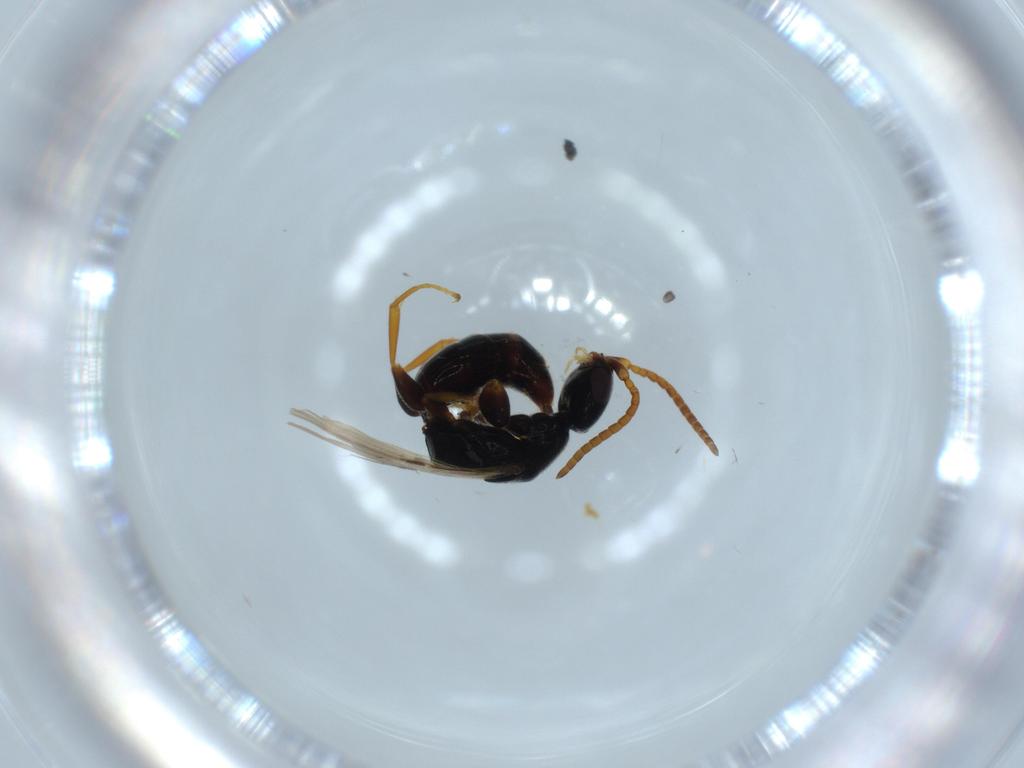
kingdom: Animalia
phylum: Arthropoda
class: Insecta
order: Hymenoptera
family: Bethylidae
